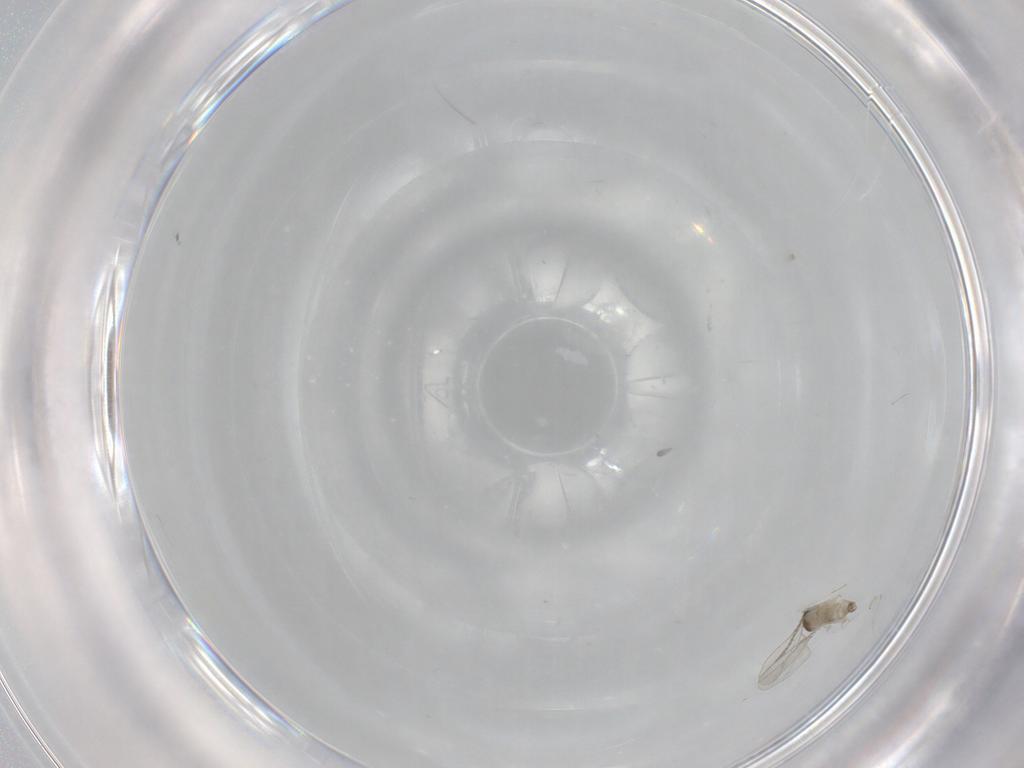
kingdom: Animalia
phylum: Arthropoda
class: Insecta
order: Diptera
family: Cecidomyiidae
